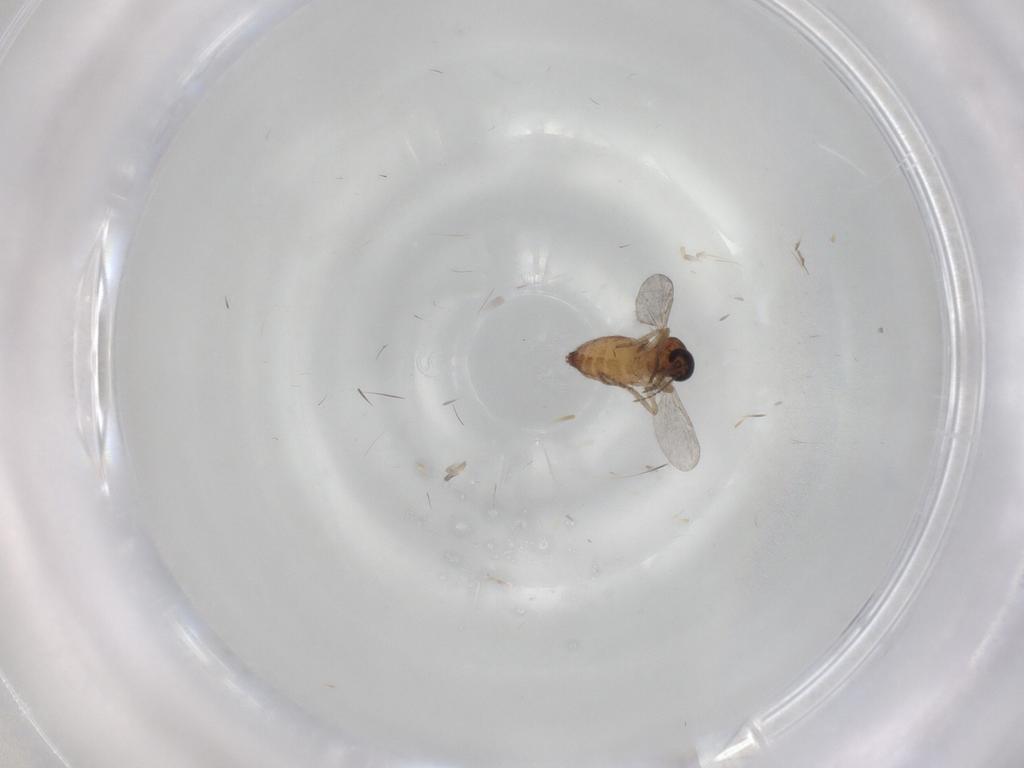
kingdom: Animalia
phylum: Arthropoda
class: Insecta
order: Diptera
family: Ceratopogonidae
